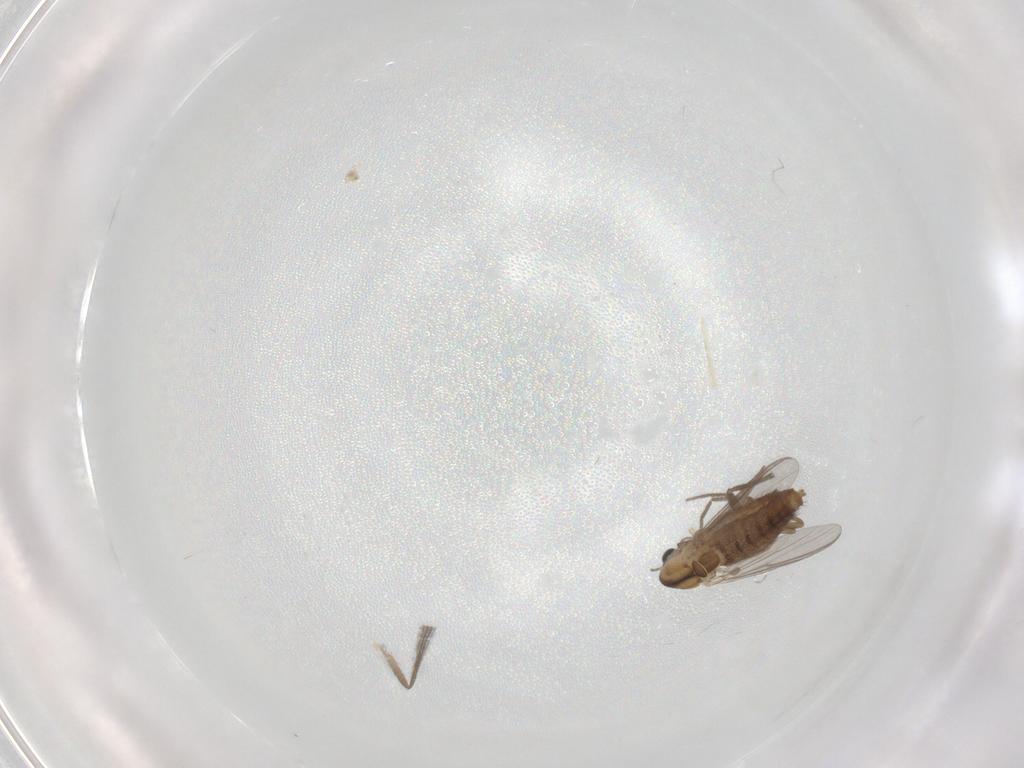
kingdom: Animalia
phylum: Arthropoda
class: Insecta
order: Diptera
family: Chironomidae
